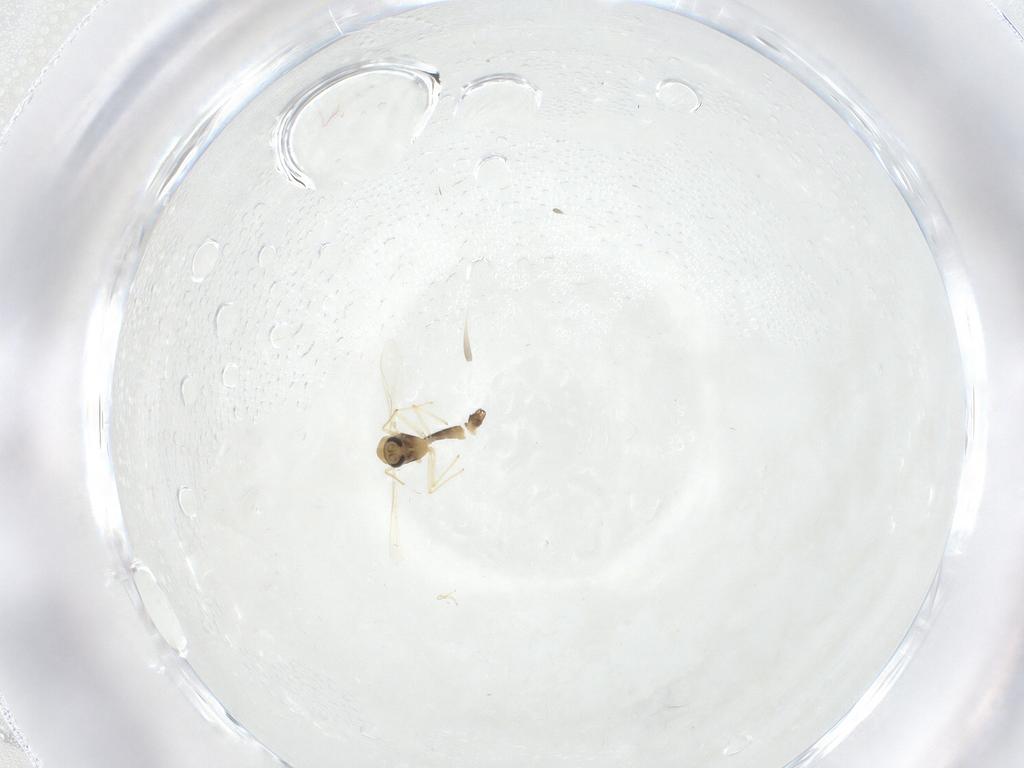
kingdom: Animalia
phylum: Arthropoda
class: Insecta
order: Diptera
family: Chironomidae
